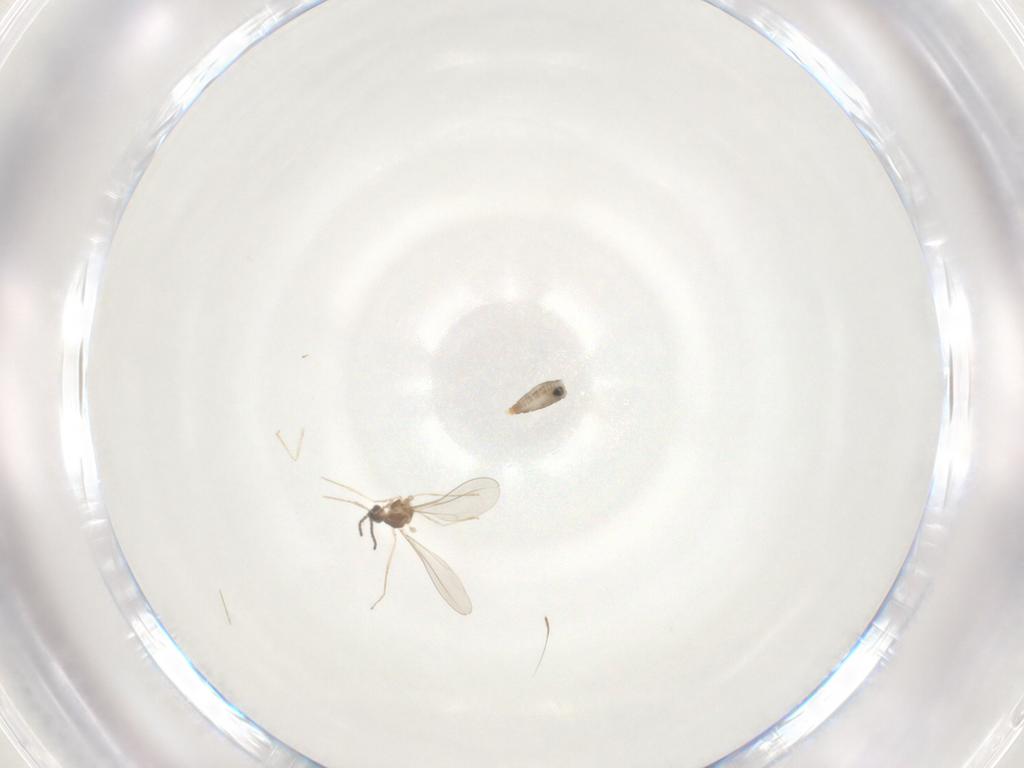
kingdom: Animalia
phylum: Arthropoda
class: Insecta
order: Diptera
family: Cecidomyiidae
